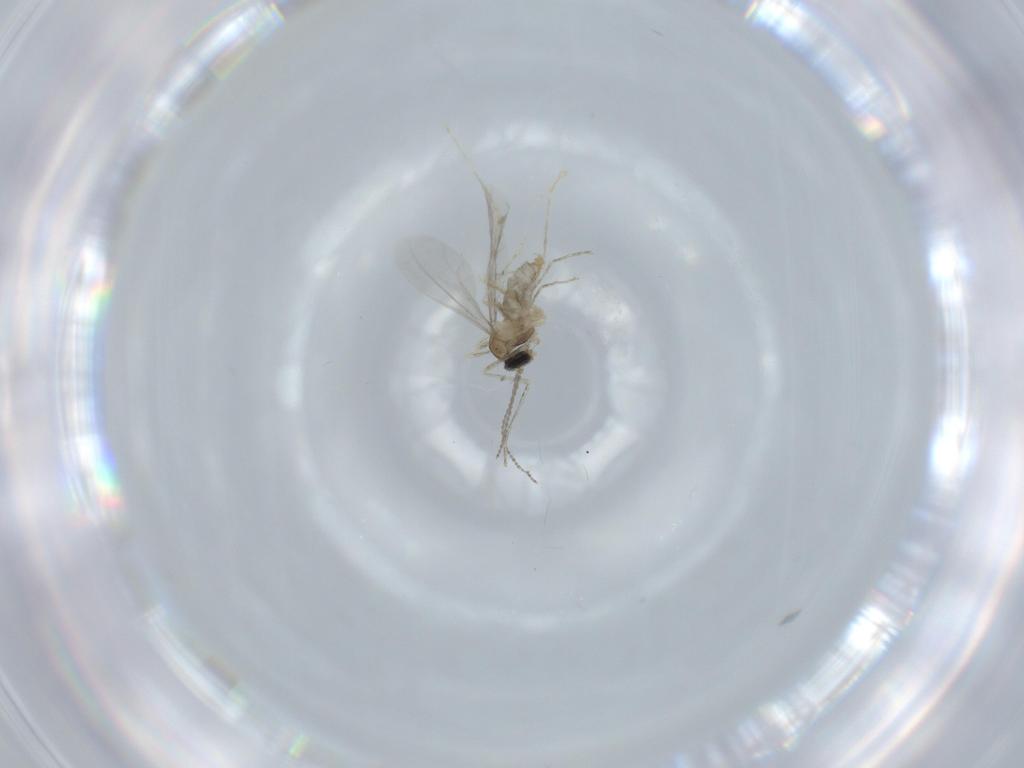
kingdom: Animalia
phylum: Arthropoda
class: Insecta
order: Diptera
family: Cecidomyiidae
